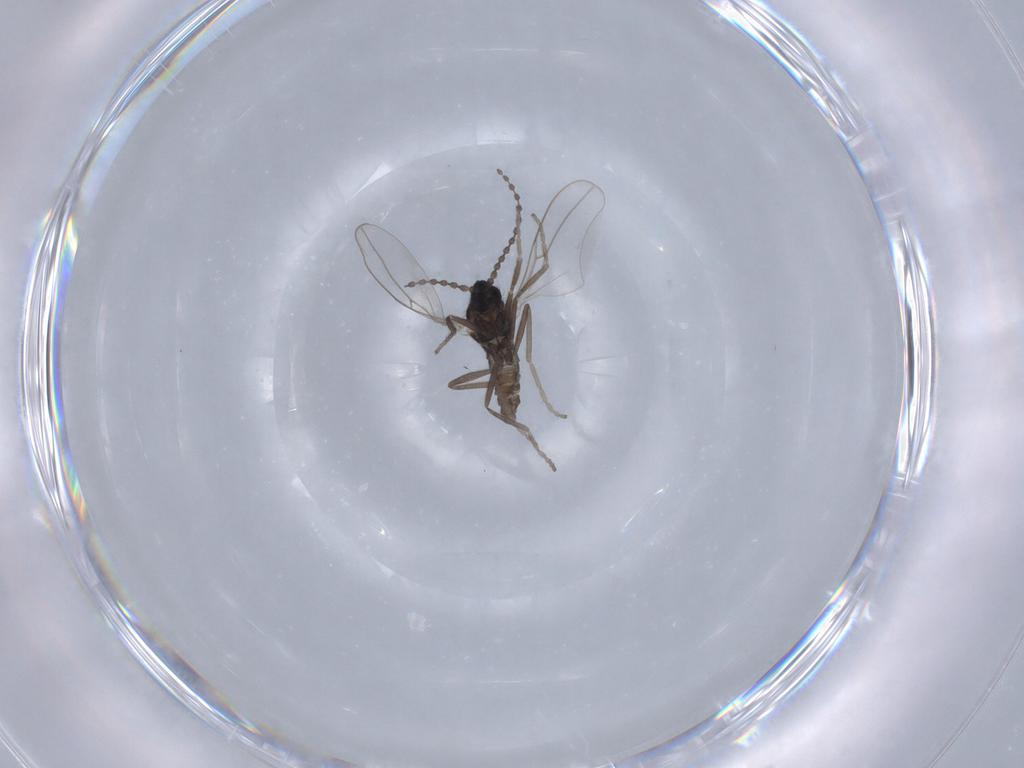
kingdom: Animalia
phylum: Arthropoda
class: Insecta
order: Diptera
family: Cecidomyiidae
